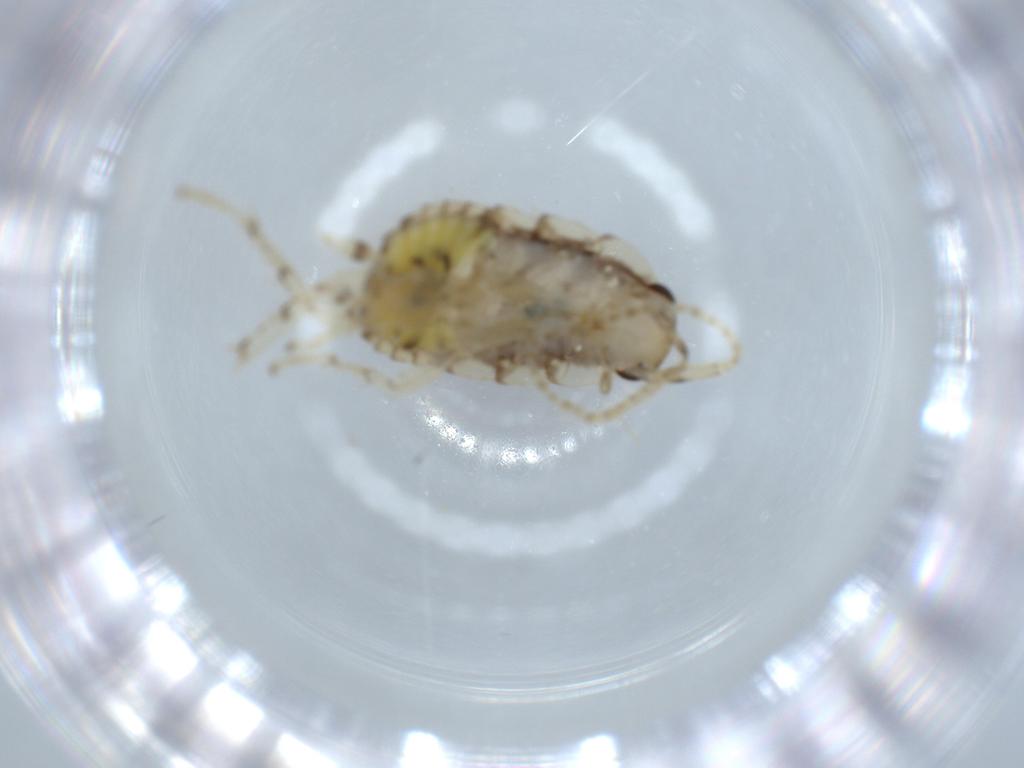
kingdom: Animalia
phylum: Arthropoda
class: Insecta
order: Blattodea
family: Ectobiidae
